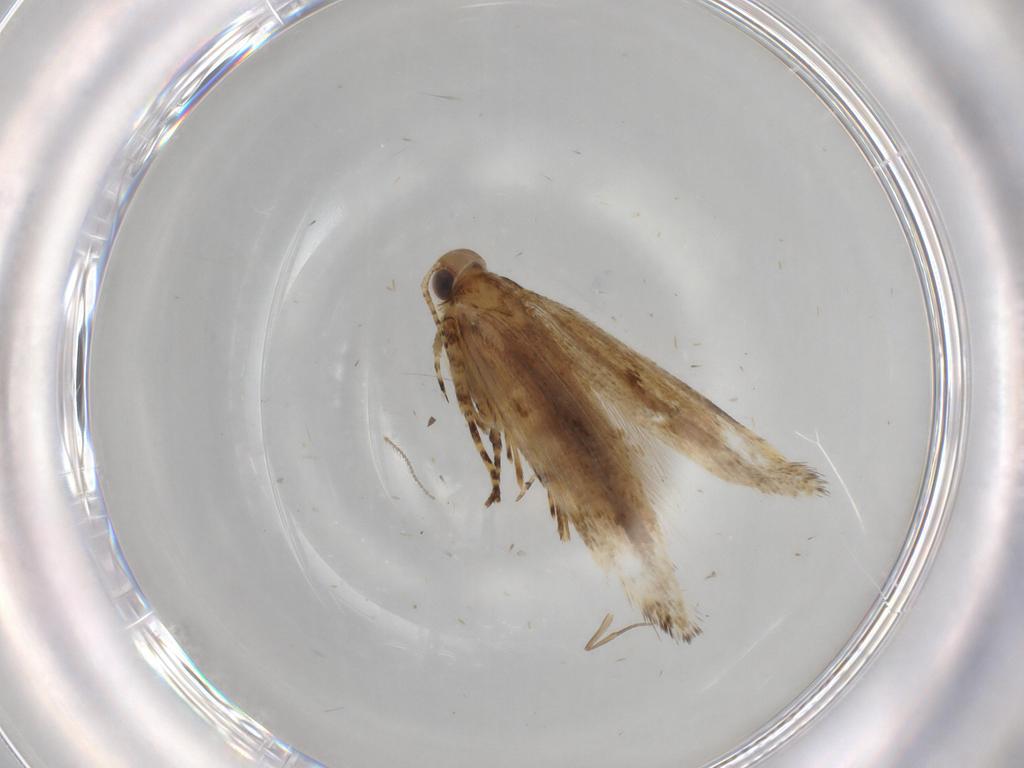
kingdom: Animalia
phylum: Arthropoda
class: Insecta
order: Lepidoptera
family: Gelechiidae
